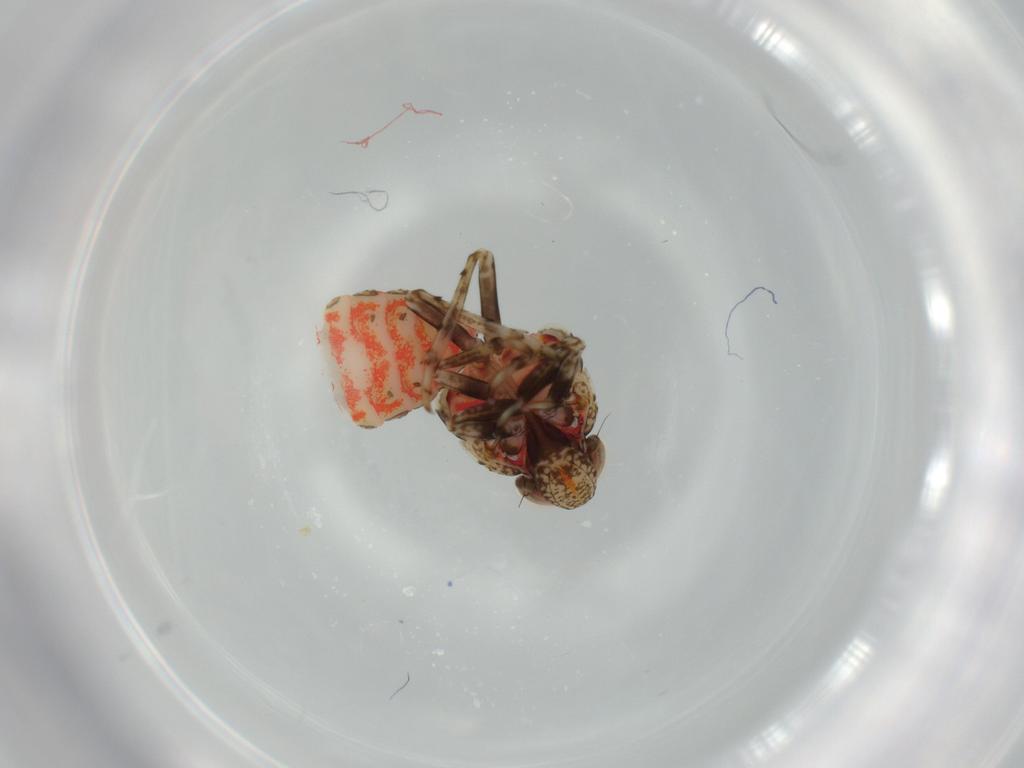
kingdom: Animalia
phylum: Arthropoda
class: Insecta
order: Hemiptera
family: Issidae
